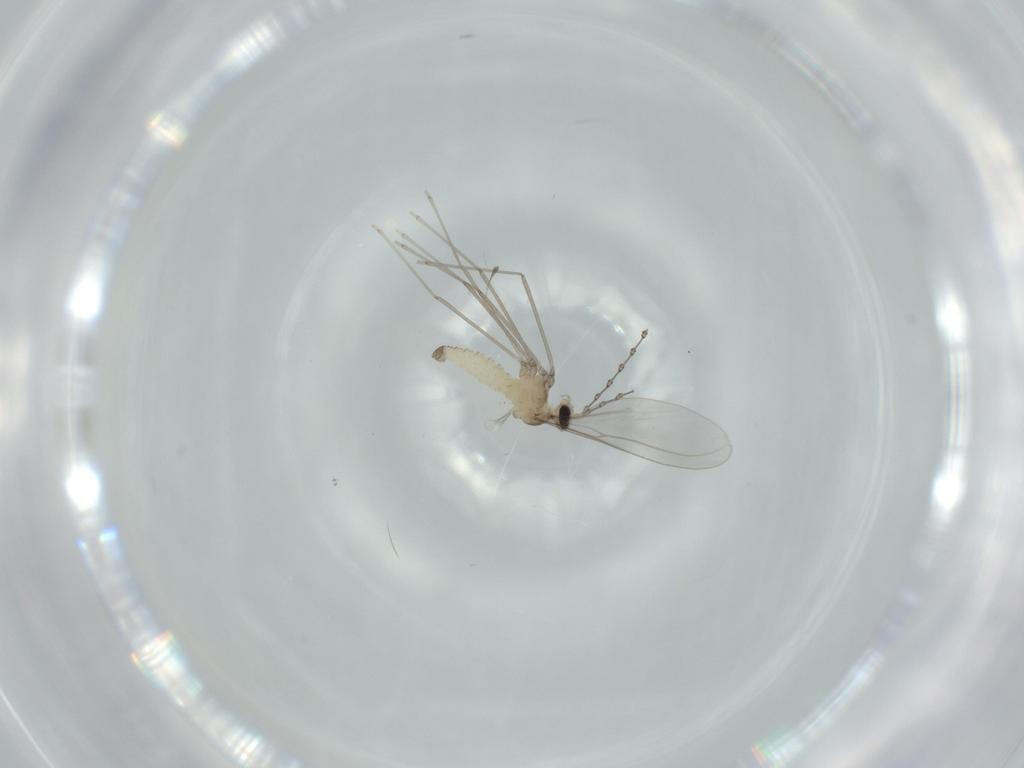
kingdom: Animalia
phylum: Arthropoda
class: Insecta
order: Diptera
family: Cecidomyiidae
